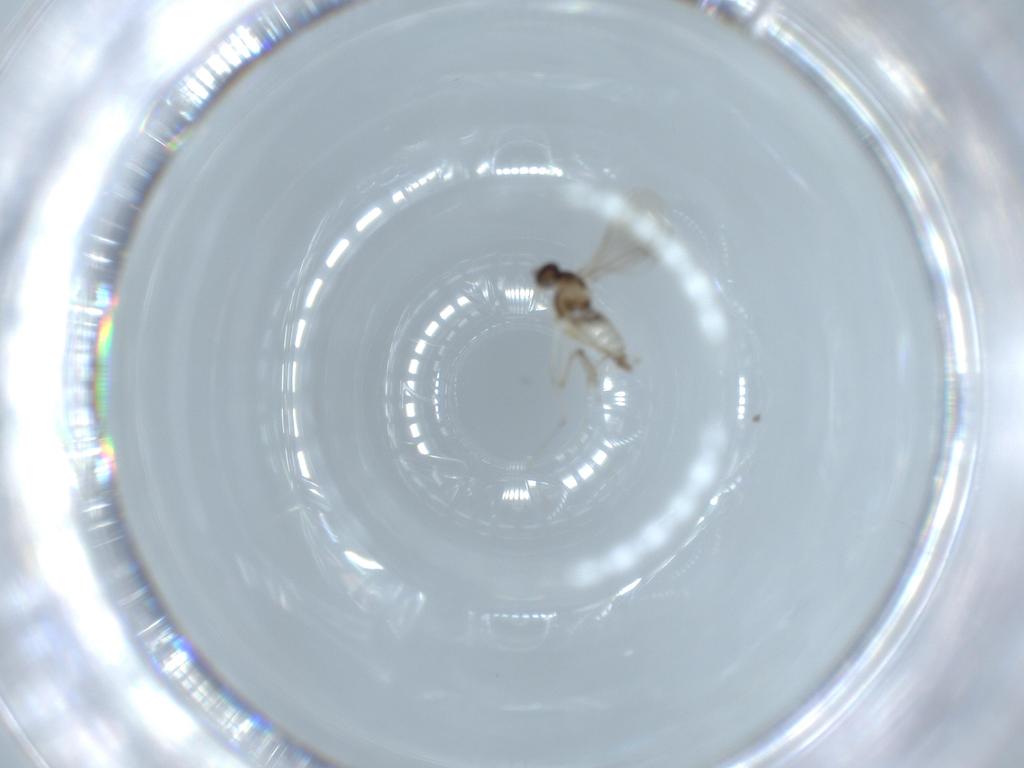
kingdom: Animalia
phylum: Arthropoda
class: Insecta
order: Diptera
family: Cecidomyiidae
